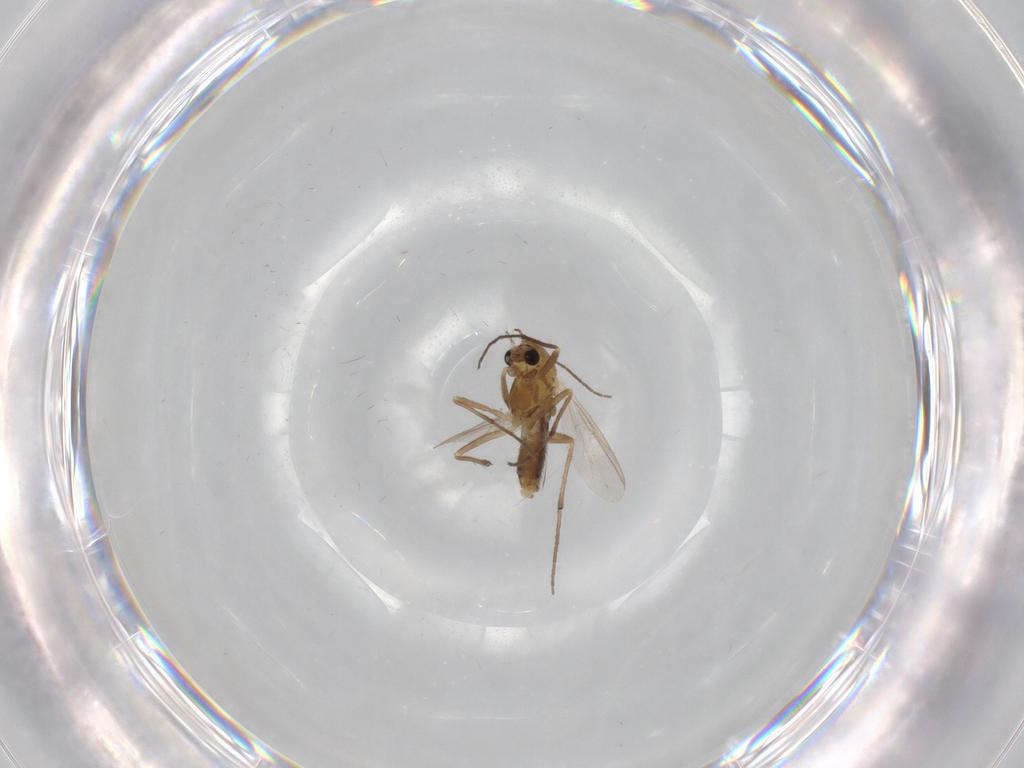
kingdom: Animalia
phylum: Arthropoda
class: Insecta
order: Diptera
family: Chironomidae
